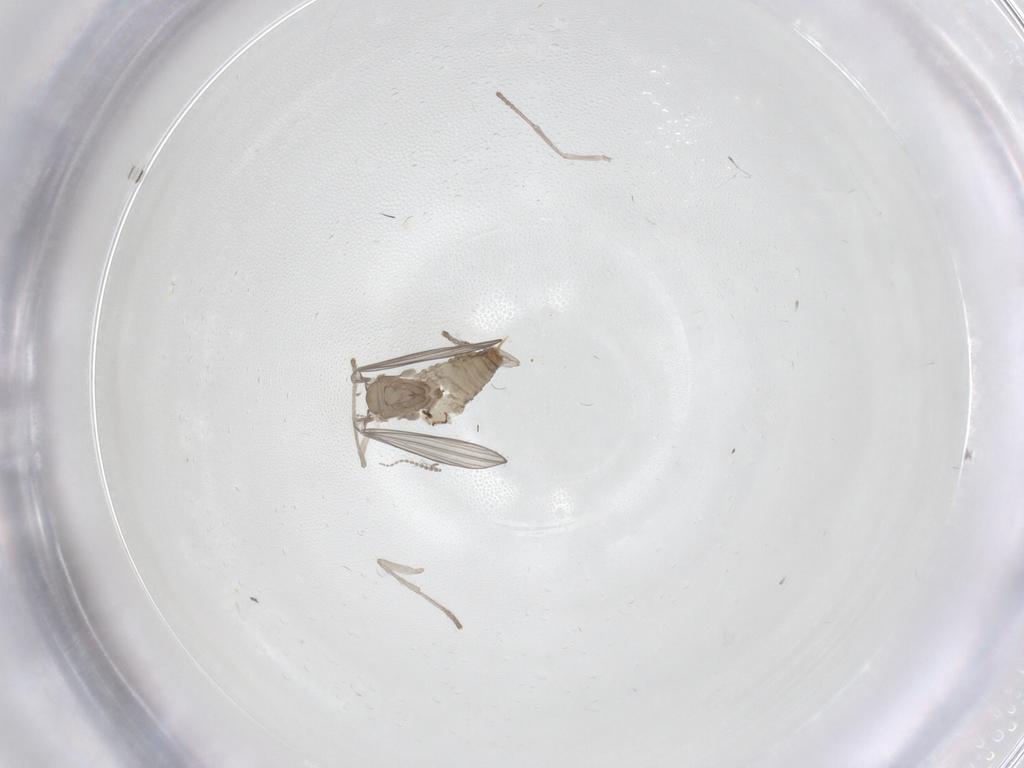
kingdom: Animalia
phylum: Arthropoda
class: Insecta
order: Diptera
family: Psychodidae
